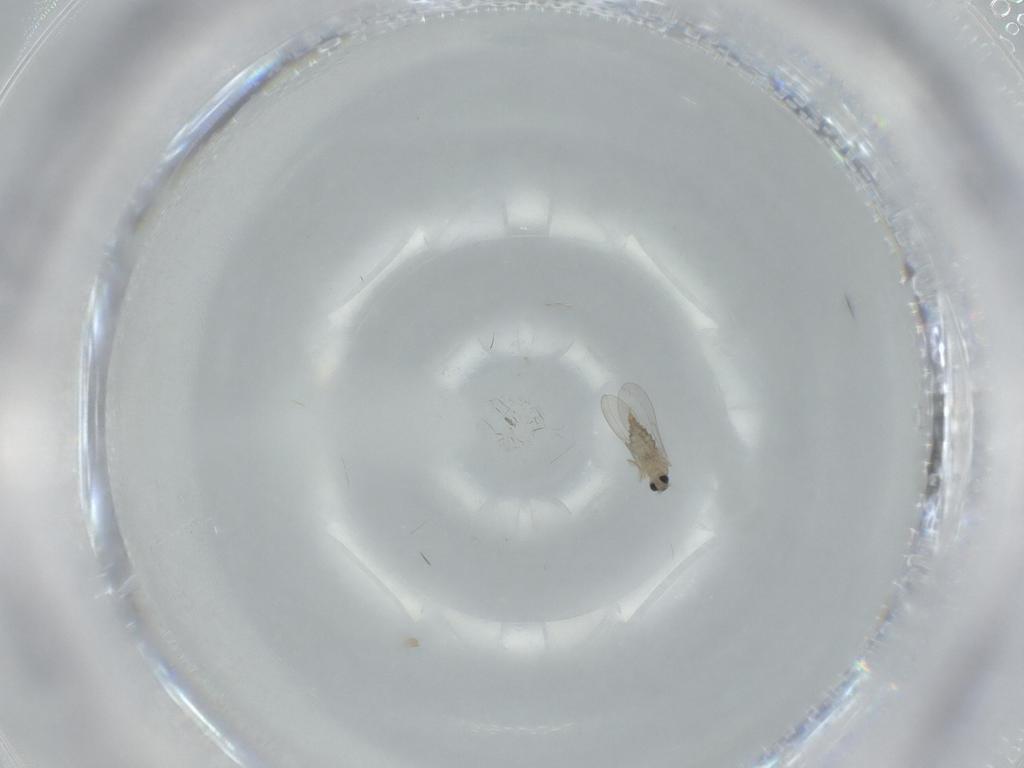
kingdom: Animalia
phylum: Arthropoda
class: Insecta
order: Diptera
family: Cecidomyiidae
